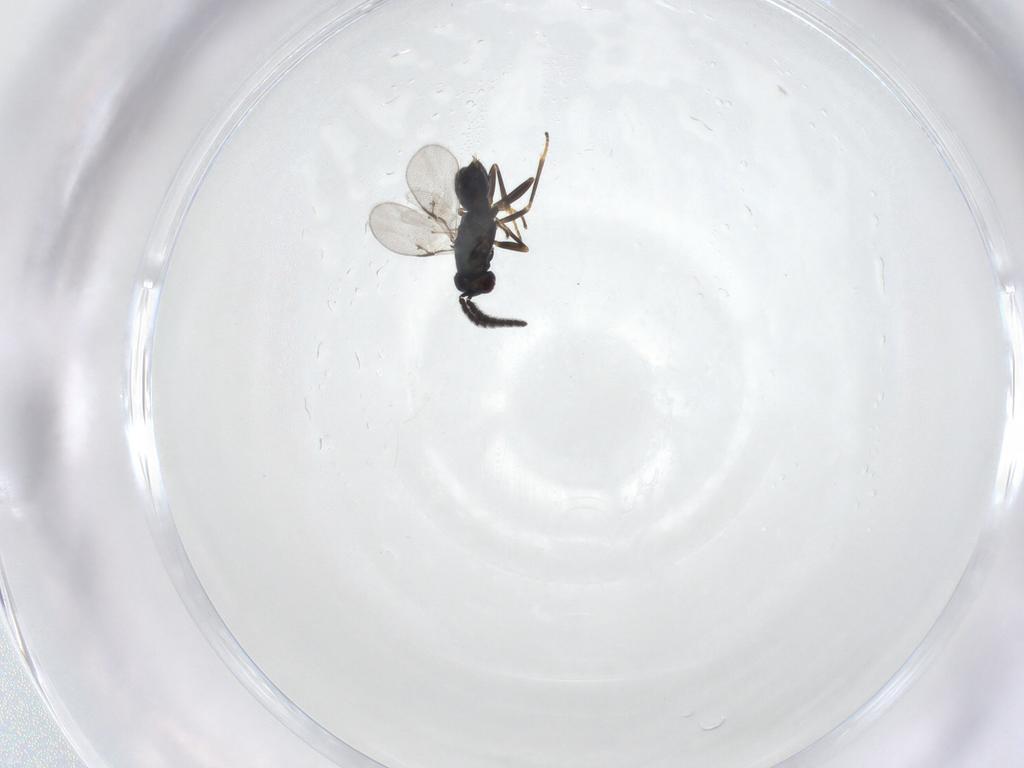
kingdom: Animalia
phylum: Arthropoda
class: Insecta
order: Hymenoptera
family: Encyrtidae
